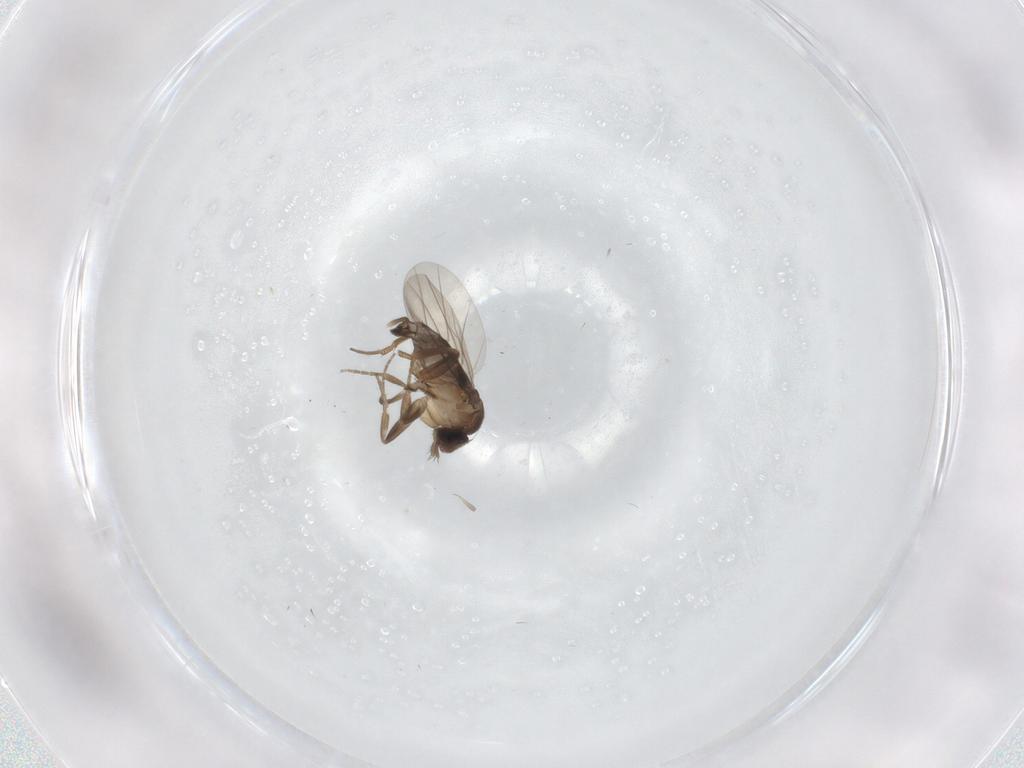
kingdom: Animalia
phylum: Arthropoda
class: Insecta
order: Diptera
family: Phoridae
